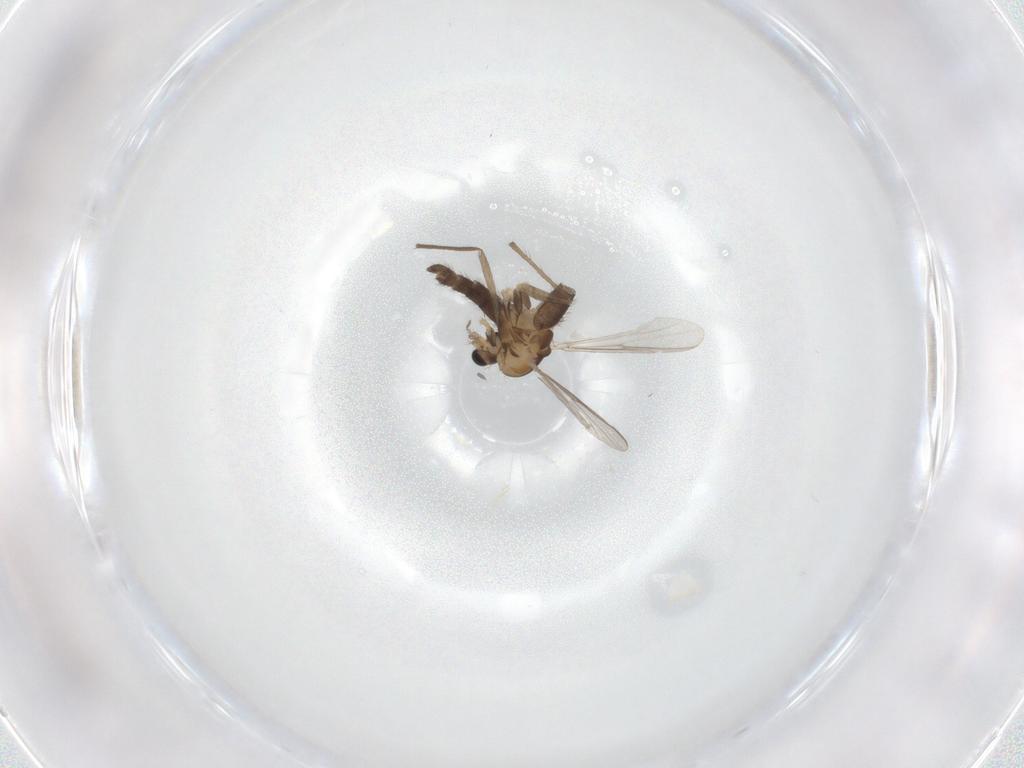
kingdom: Animalia
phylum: Arthropoda
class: Insecta
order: Diptera
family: Chironomidae
